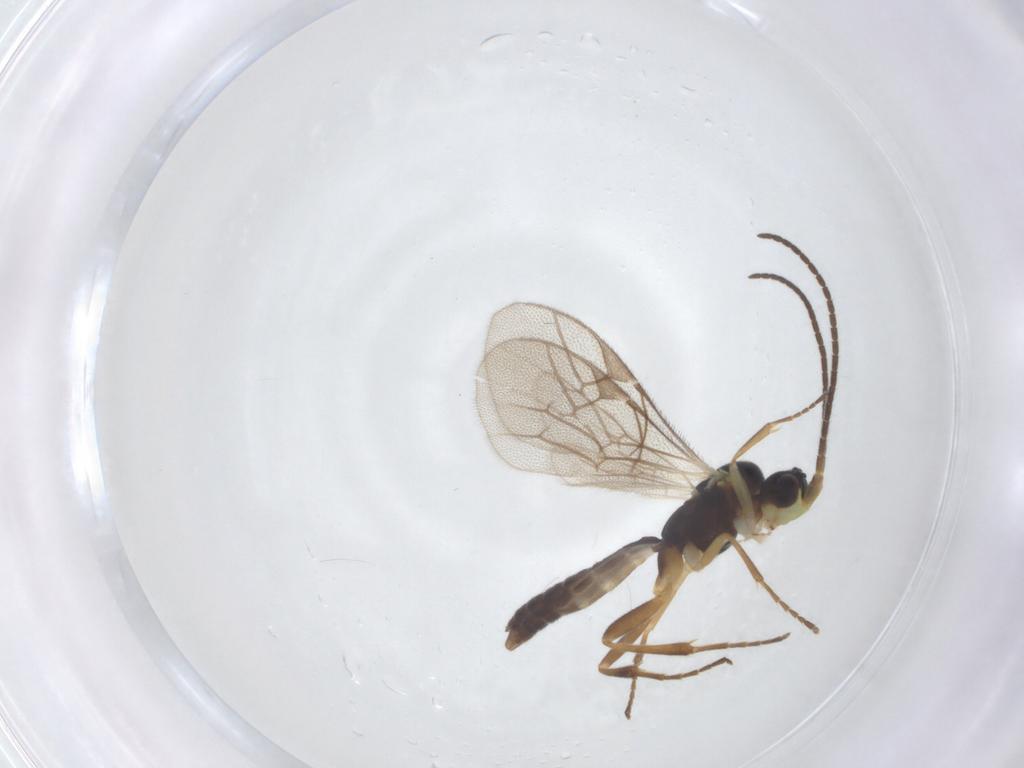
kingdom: Animalia
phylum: Arthropoda
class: Insecta
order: Hymenoptera
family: Ichneumonidae
